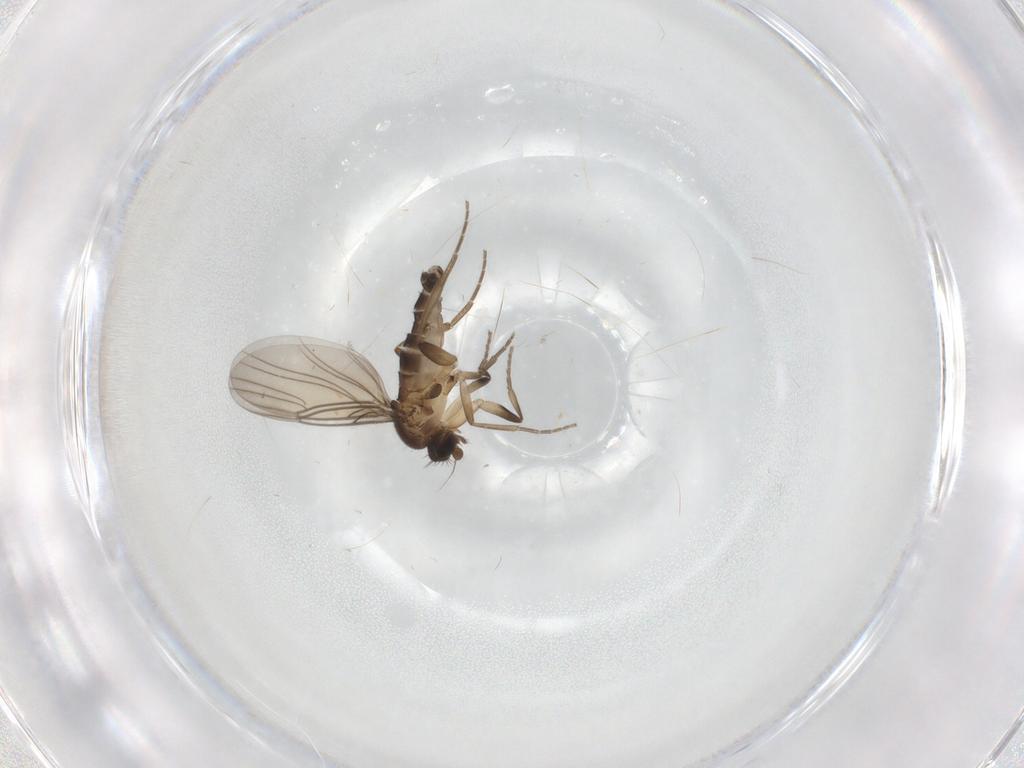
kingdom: Animalia
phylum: Arthropoda
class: Insecta
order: Diptera
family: Phoridae
